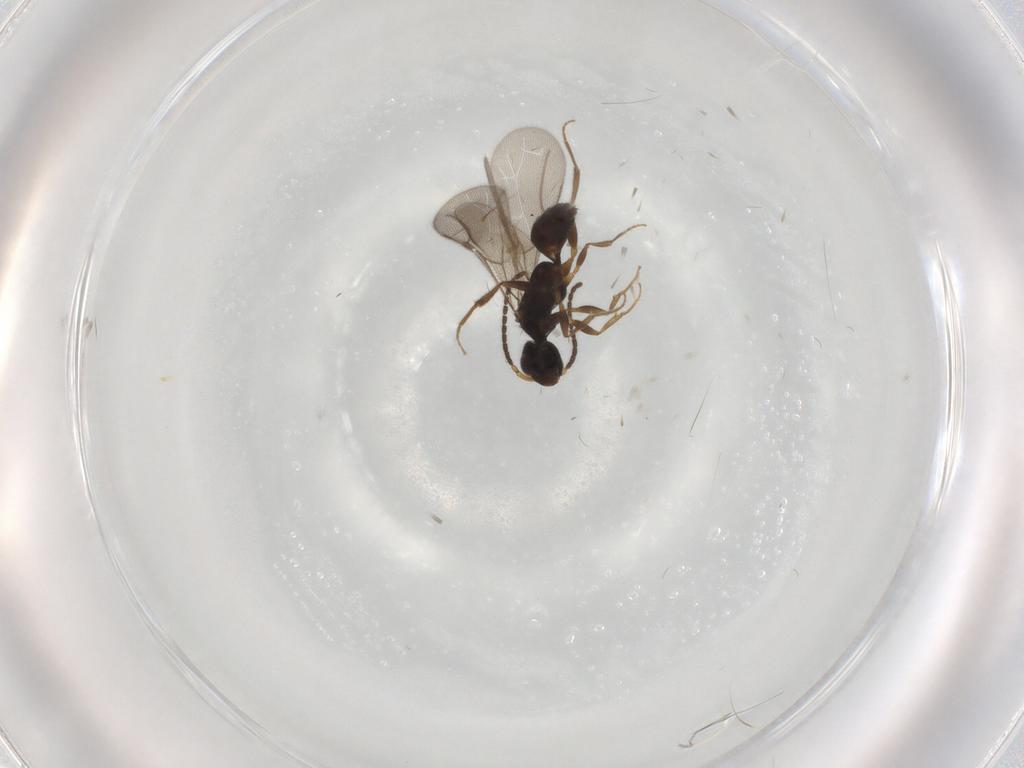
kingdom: Animalia
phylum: Arthropoda
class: Insecta
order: Hymenoptera
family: Bethylidae
